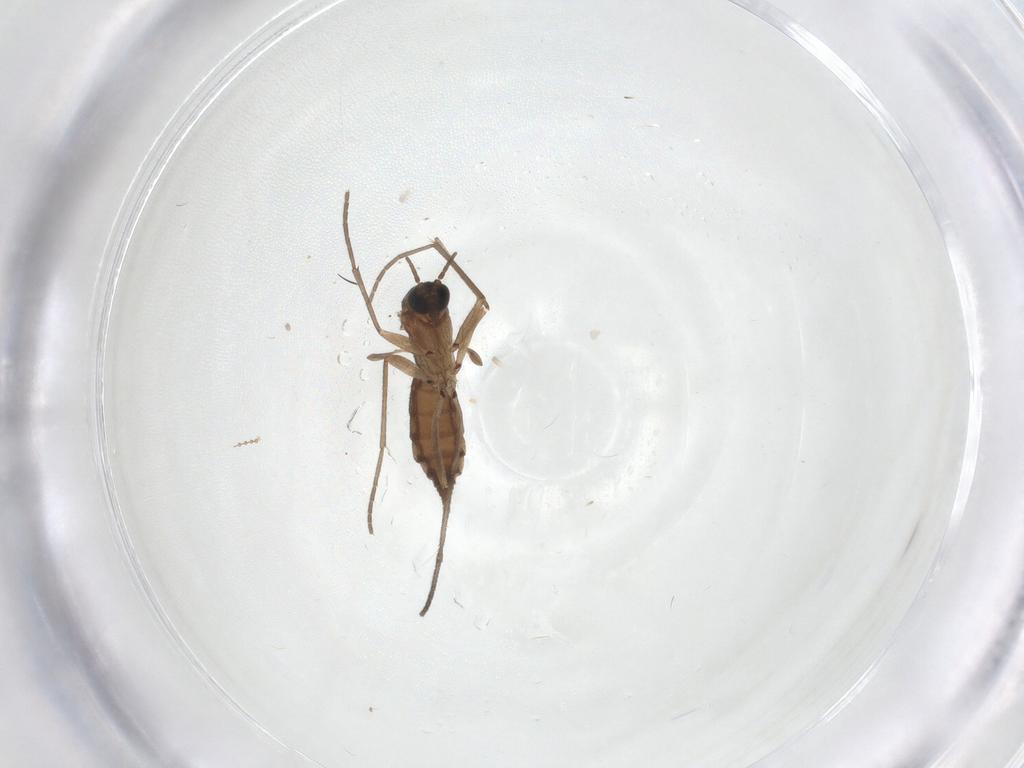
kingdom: Animalia
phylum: Arthropoda
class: Insecta
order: Diptera
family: Sciaridae
